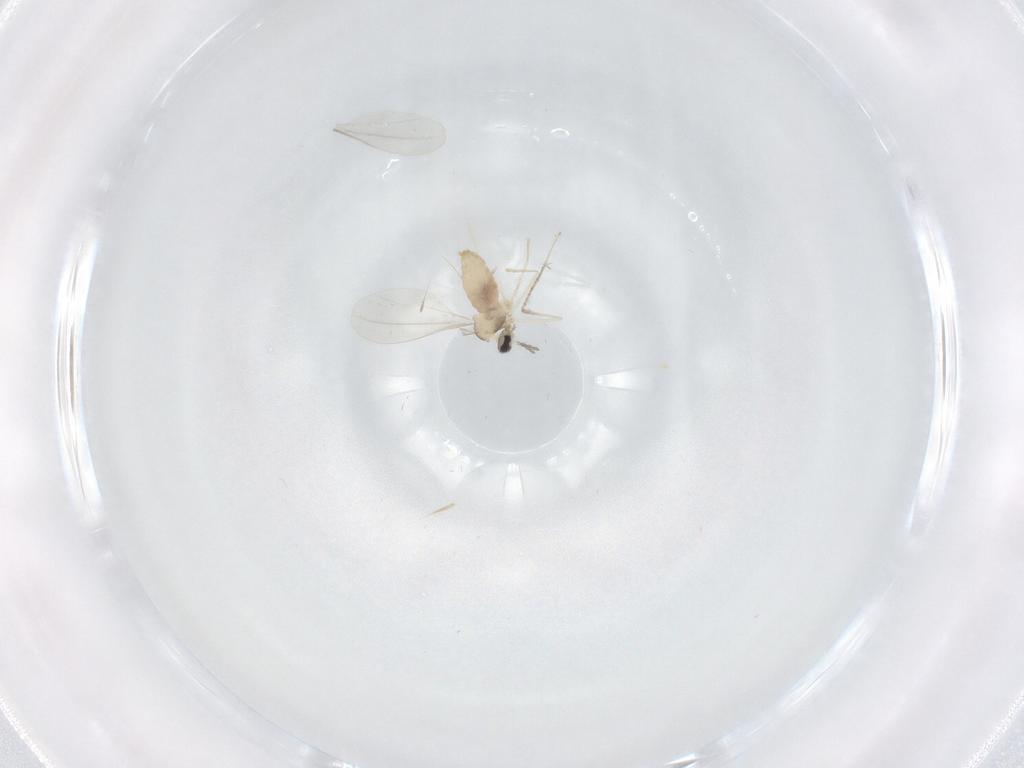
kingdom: Animalia
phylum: Arthropoda
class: Insecta
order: Diptera
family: Cecidomyiidae
